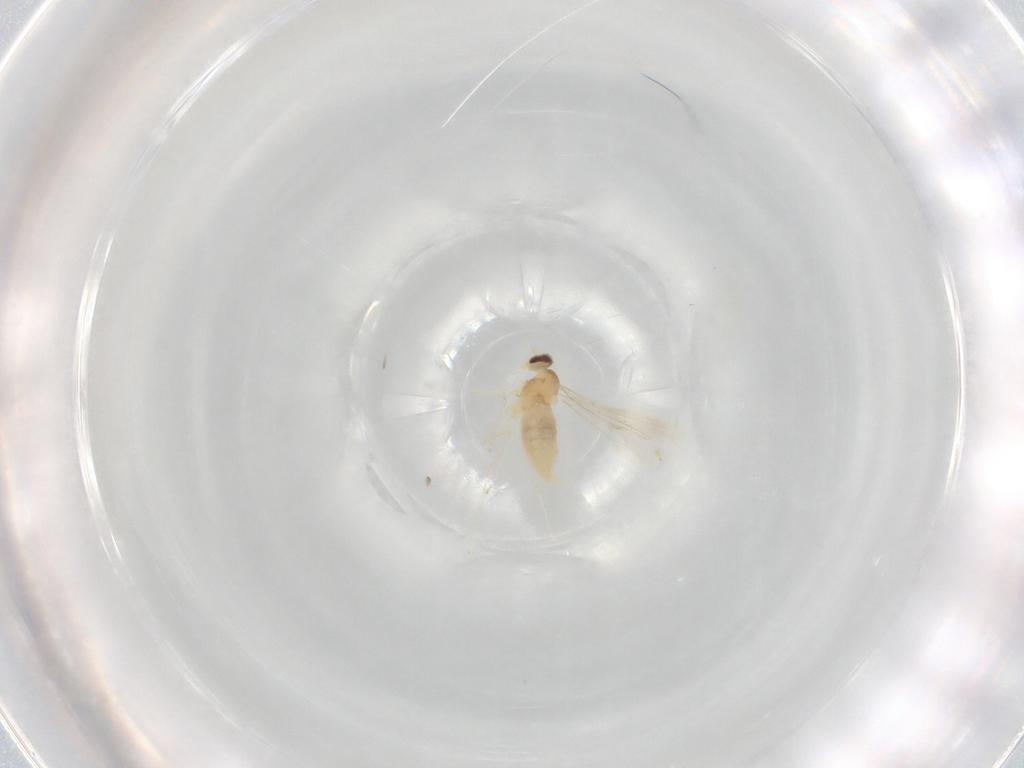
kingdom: Animalia
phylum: Arthropoda
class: Insecta
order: Diptera
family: Cecidomyiidae
